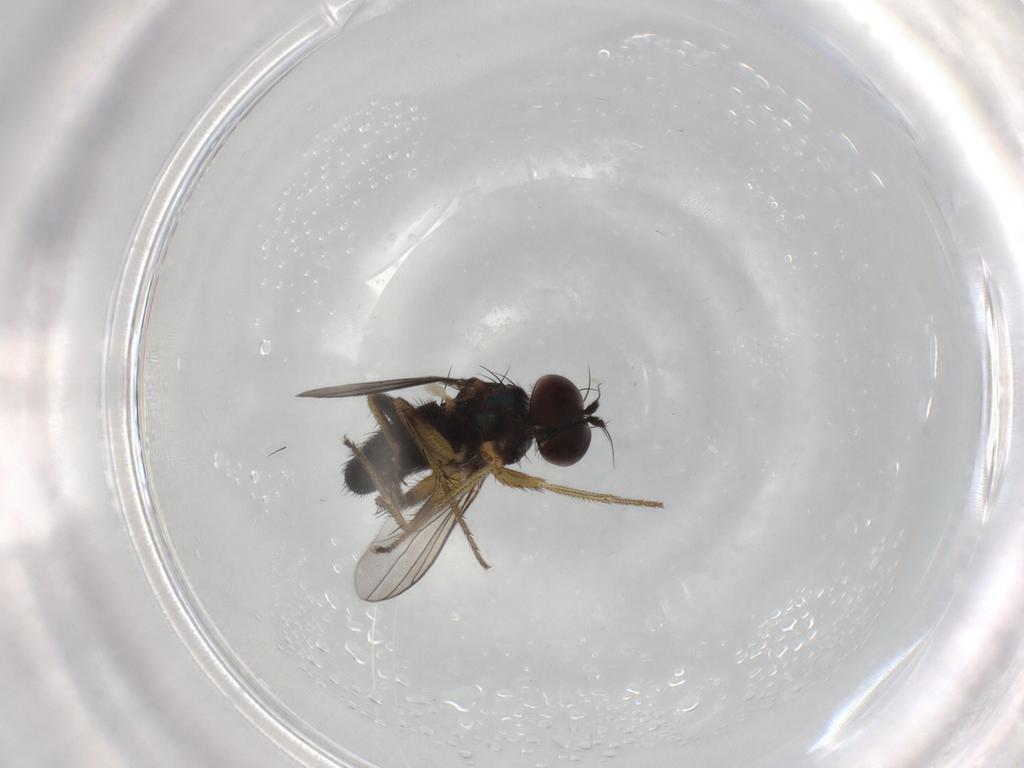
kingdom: Animalia
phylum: Arthropoda
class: Insecta
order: Diptera
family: Dolichopodidae
